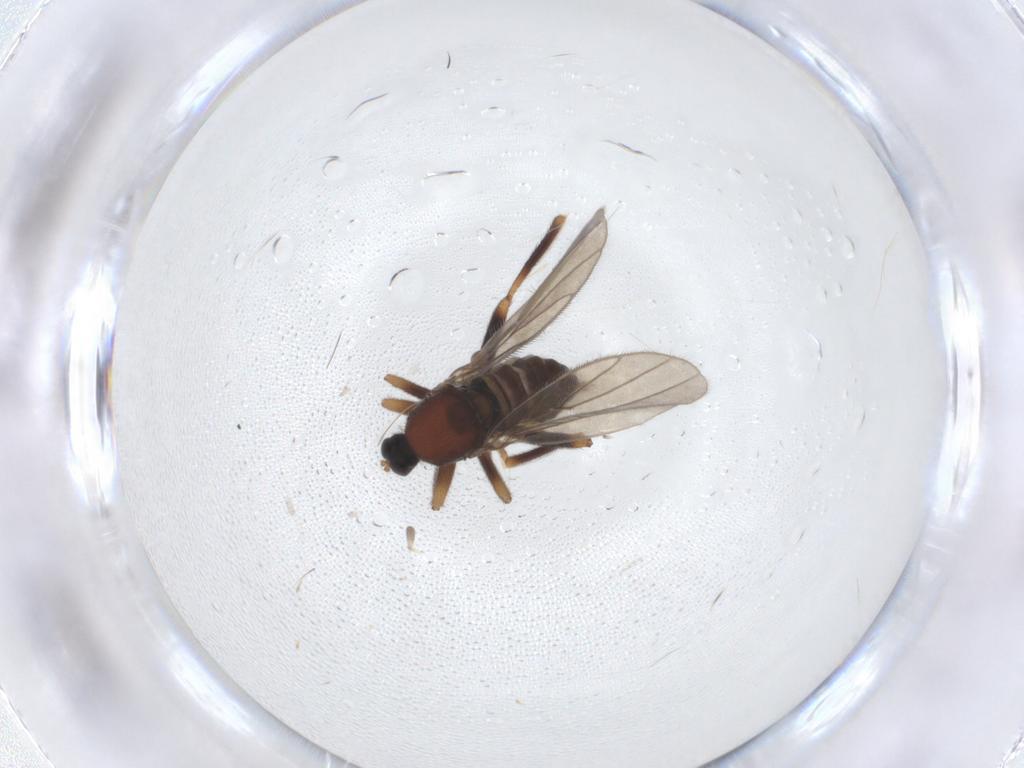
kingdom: Animalia
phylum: Arthropoda
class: Insecta
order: Diptera
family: Hybotidae
